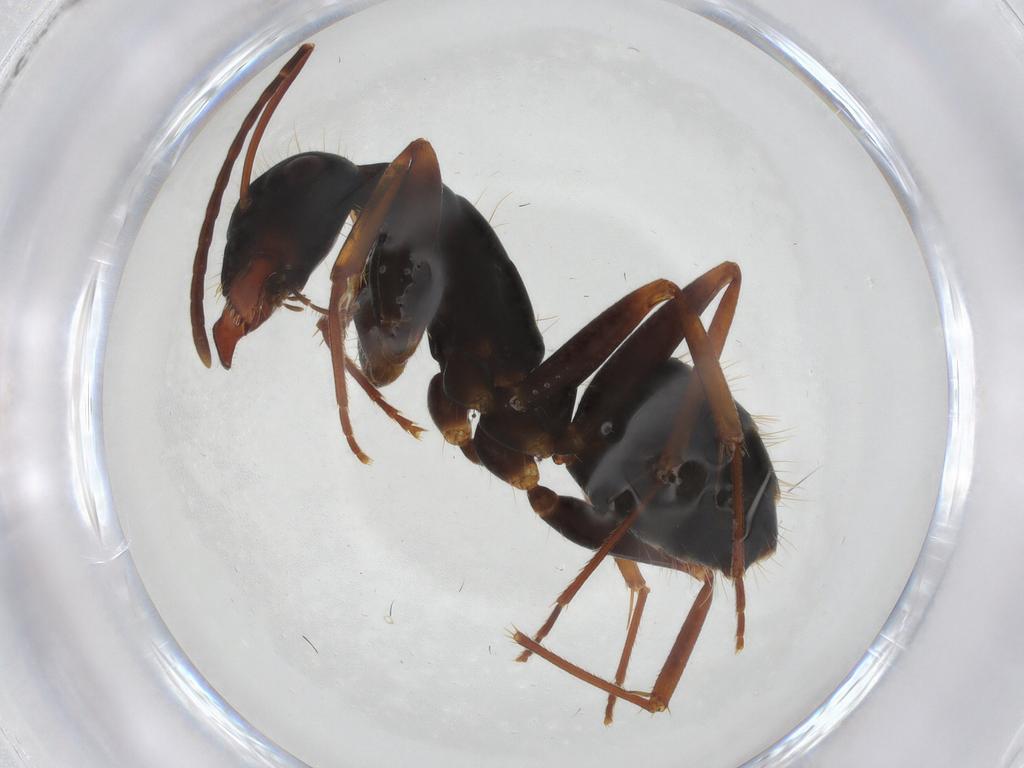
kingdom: Animalia
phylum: Arthropoda
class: Insecta
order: Hymenoptera
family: Formicidae
